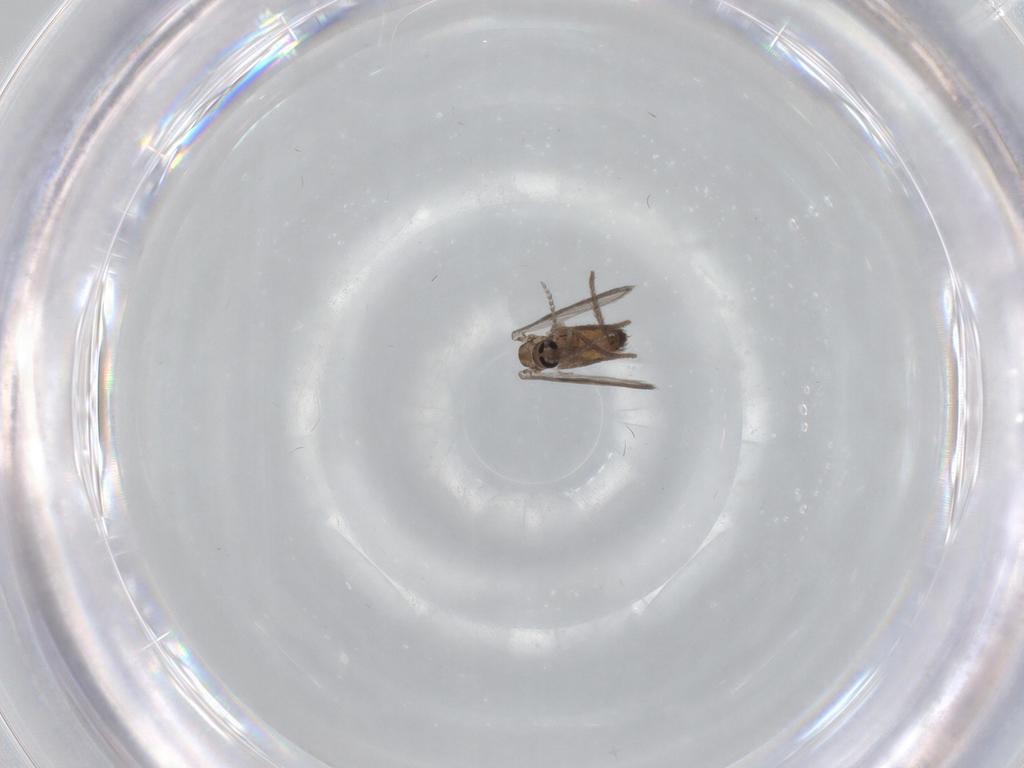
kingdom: Animalia
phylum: Arthropoda
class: Insecta
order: Diptera
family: Tabanidae
